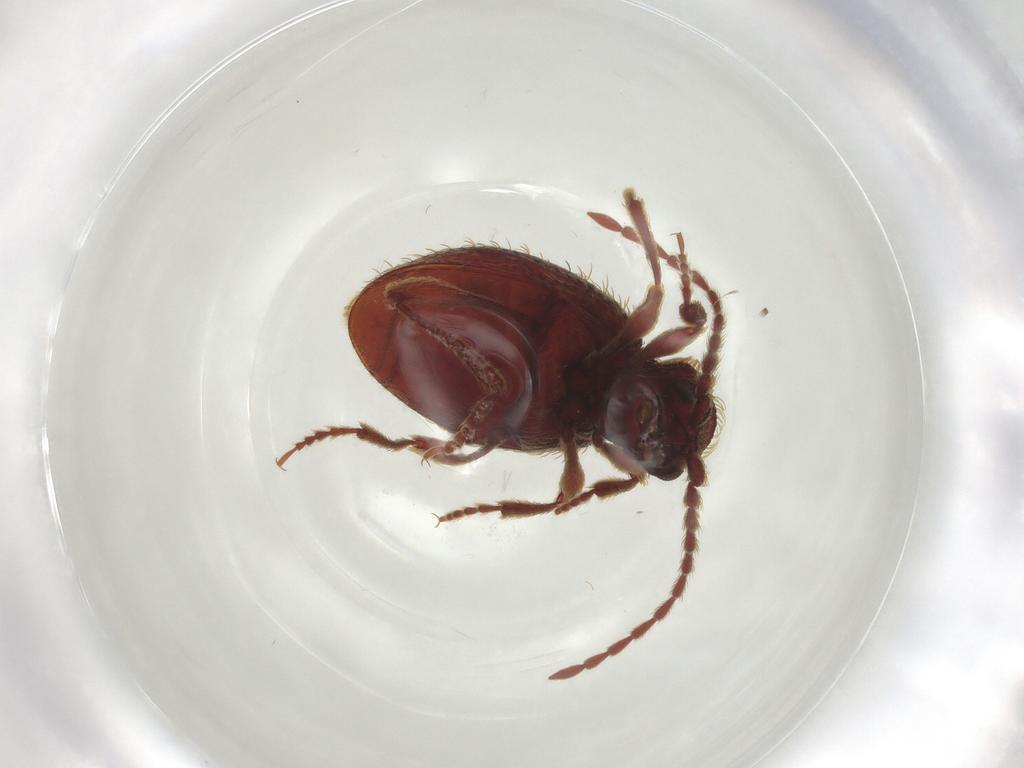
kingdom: Animalia
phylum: Arthropoda
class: Insecta
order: Coleoptera
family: Ptinidae
